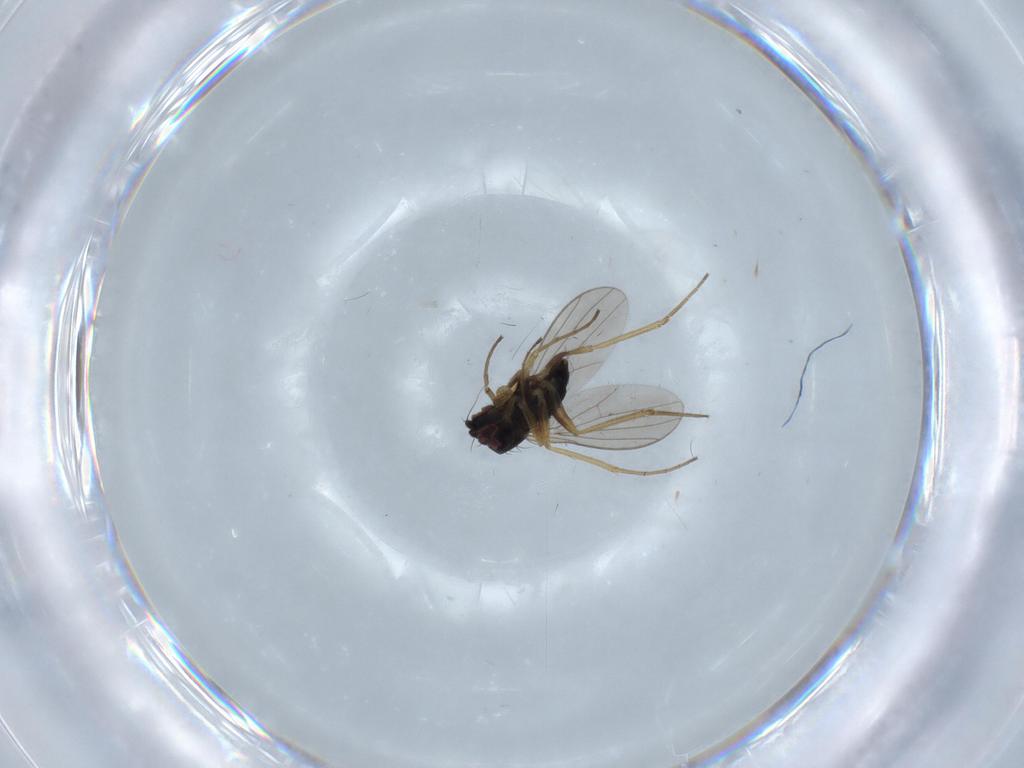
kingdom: Animalia
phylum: Arthropoda
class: Insecta
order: Diptera
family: Dolichopodidae
